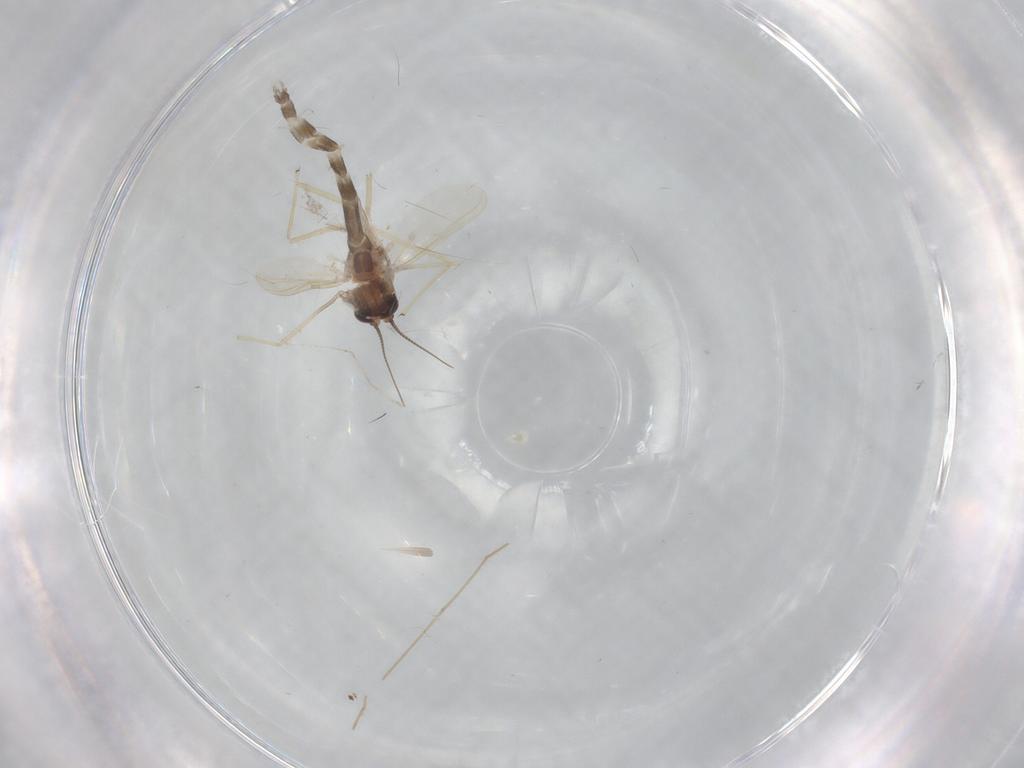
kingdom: Animalia
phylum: Arthropoda
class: Insecta
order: Diptera
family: Chironomidae
